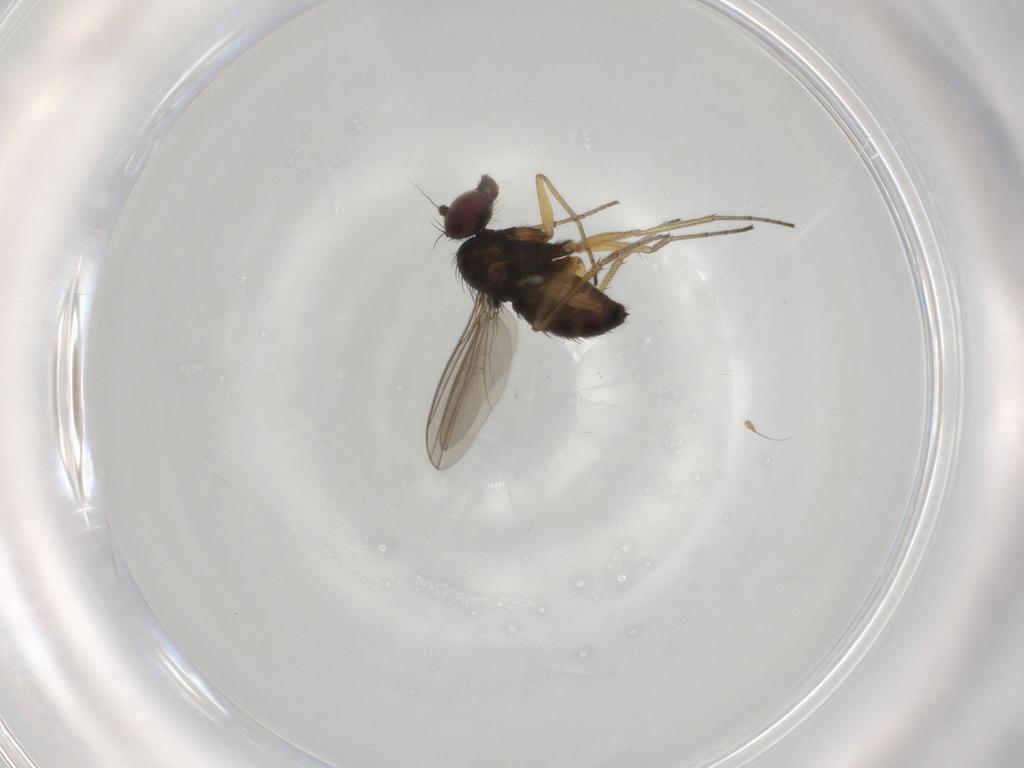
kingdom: Animalia
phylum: Arthropoda
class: Insecta
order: Diptera
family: Dolichopodidae
